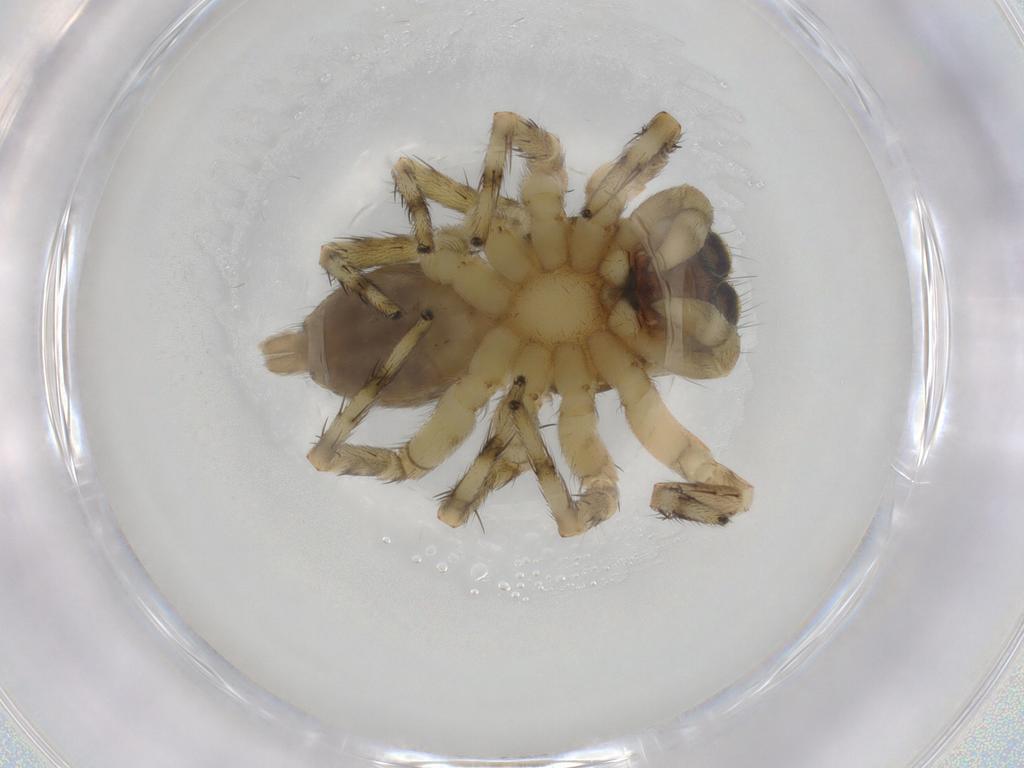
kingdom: Animalia
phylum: Arthropoda
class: Arachnida
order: Araneae
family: Salticidae
